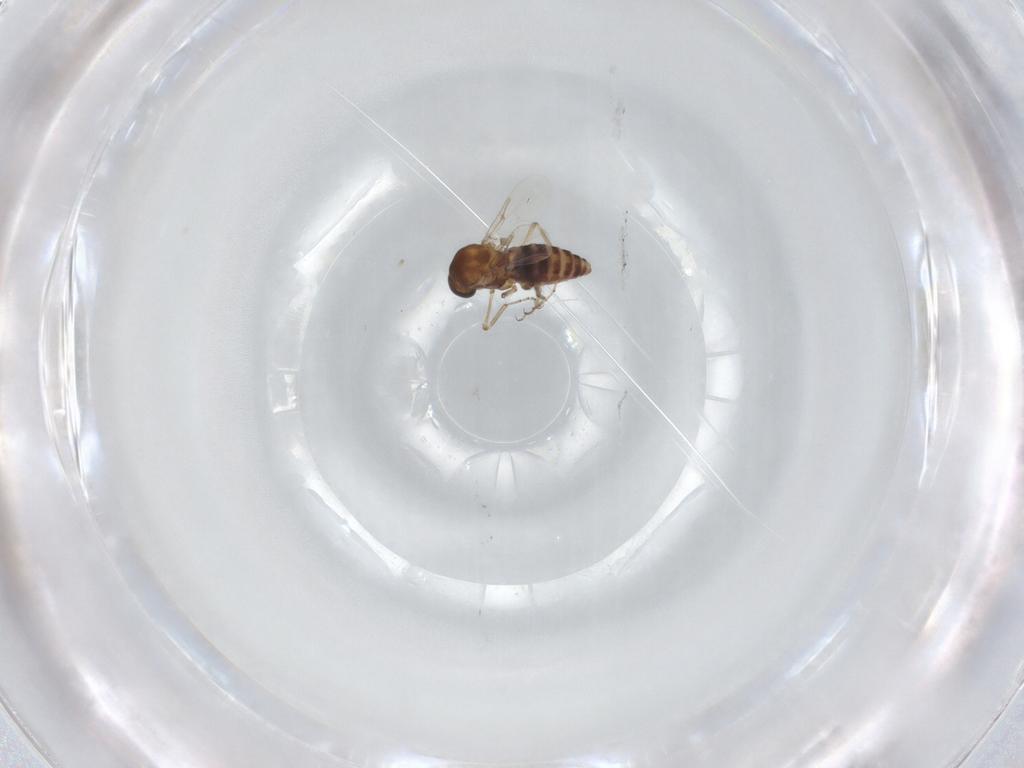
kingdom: Animalia
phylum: Arthropoda
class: Insecta
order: Diptera
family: Ceratopogonidae
